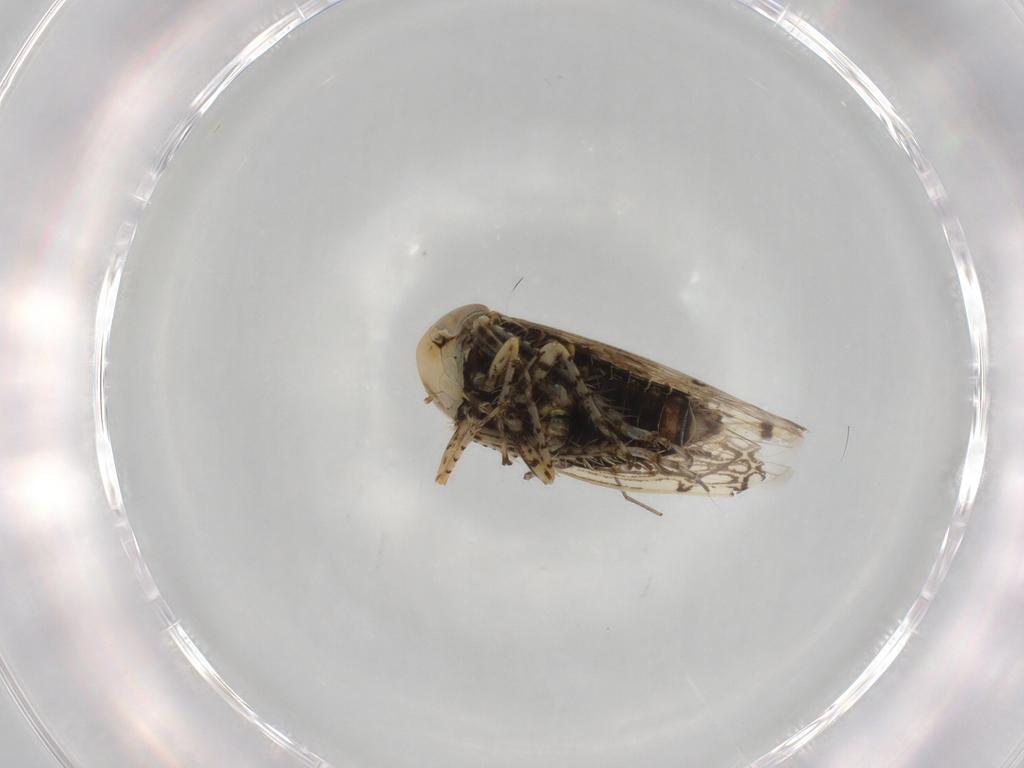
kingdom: Animalia
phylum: Arthropoda
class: Insecta
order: Hemiptera
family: Cicadellidae
